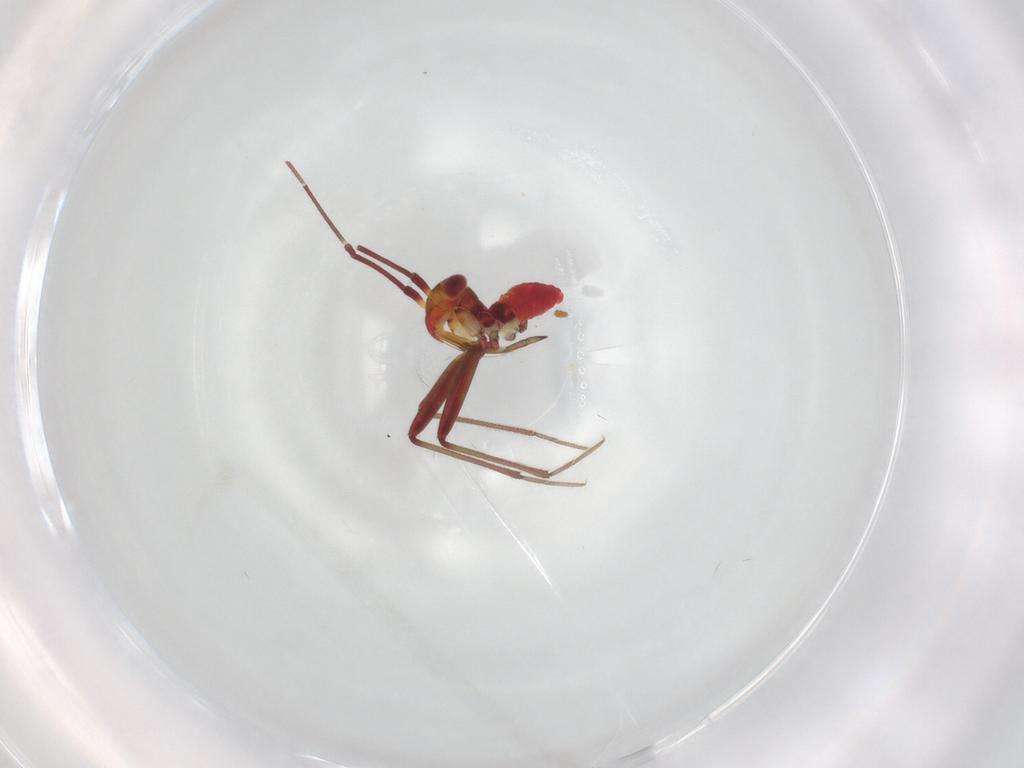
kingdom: Animalia
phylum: Arthropoda
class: Insecta
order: Hemiptera
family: Miridae
